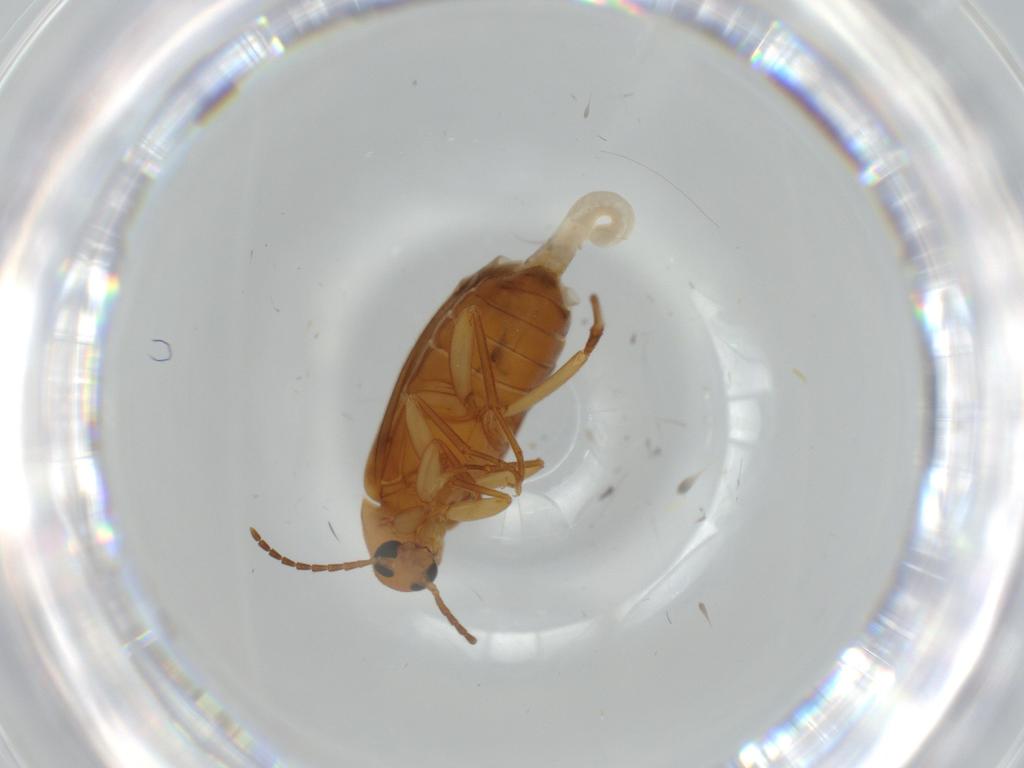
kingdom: Animalia
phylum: Arthropoda
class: Insecta
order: Coleoptera
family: Scraptiidae
